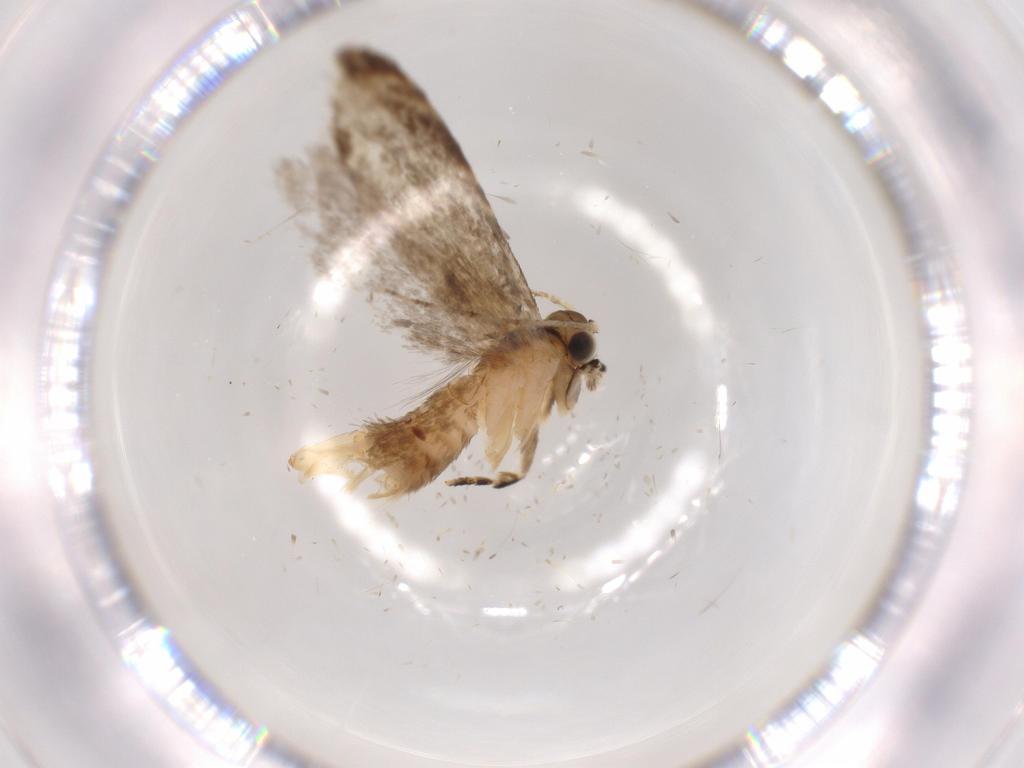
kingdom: Animalia
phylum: Arthropoda
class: Insecta
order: Lepidoptera
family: Tineidae
